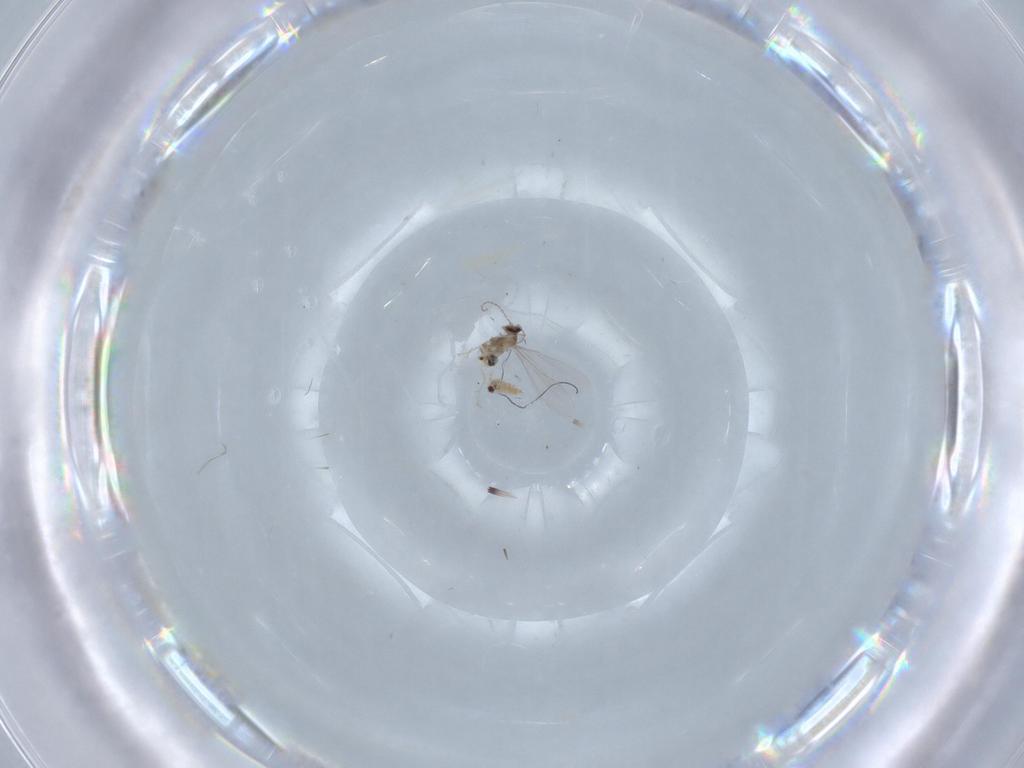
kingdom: Animalia
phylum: Arthropoda
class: Insecta
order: Diptera
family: Cecidomyiidae
